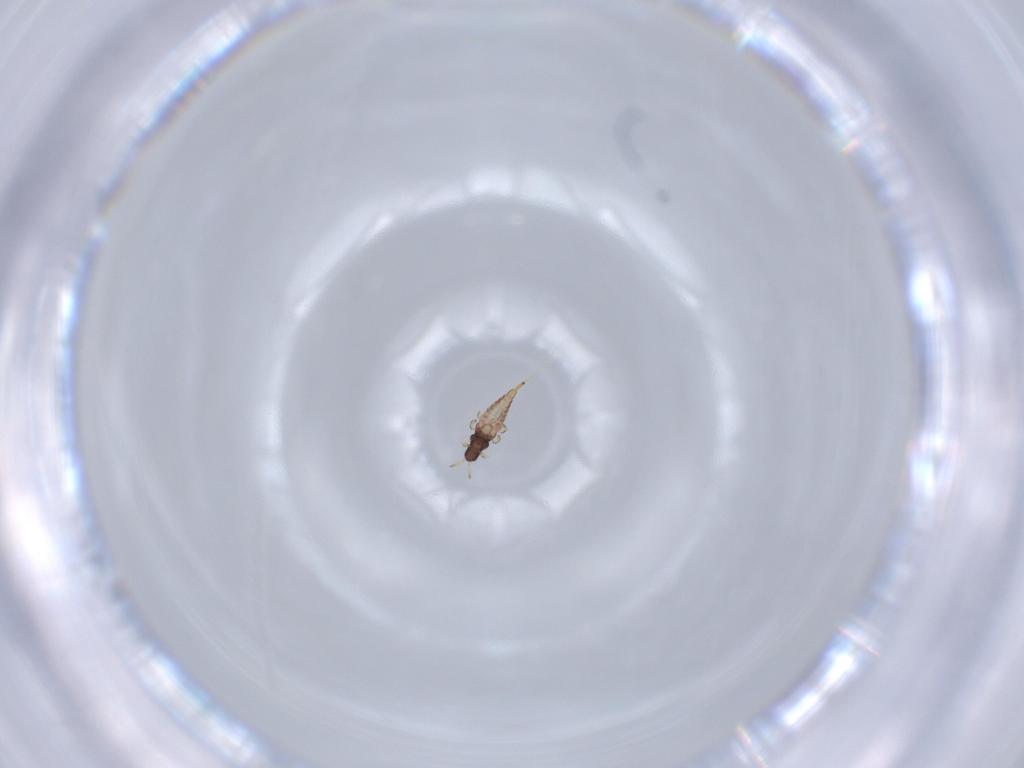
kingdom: Animalia
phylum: Arthropoda
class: Insecta
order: Thysanoptera
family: Phlaeothripidae
